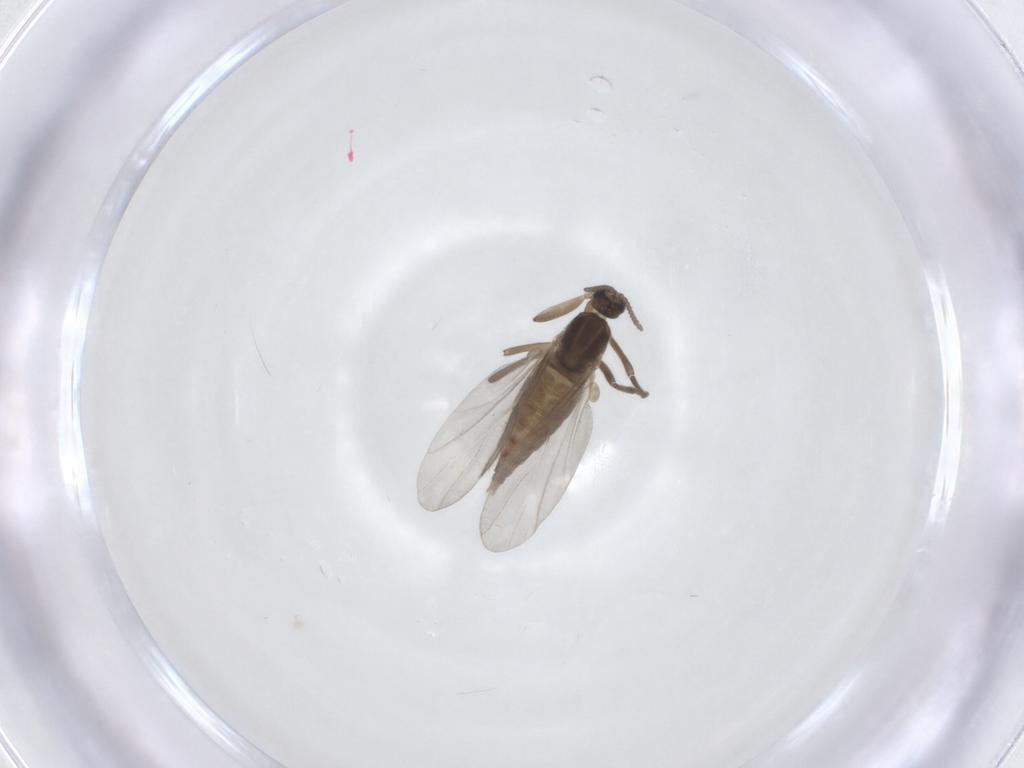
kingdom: Animalia
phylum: Arthropoda
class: Insecta
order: Diptera
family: Cecidomyiidae
